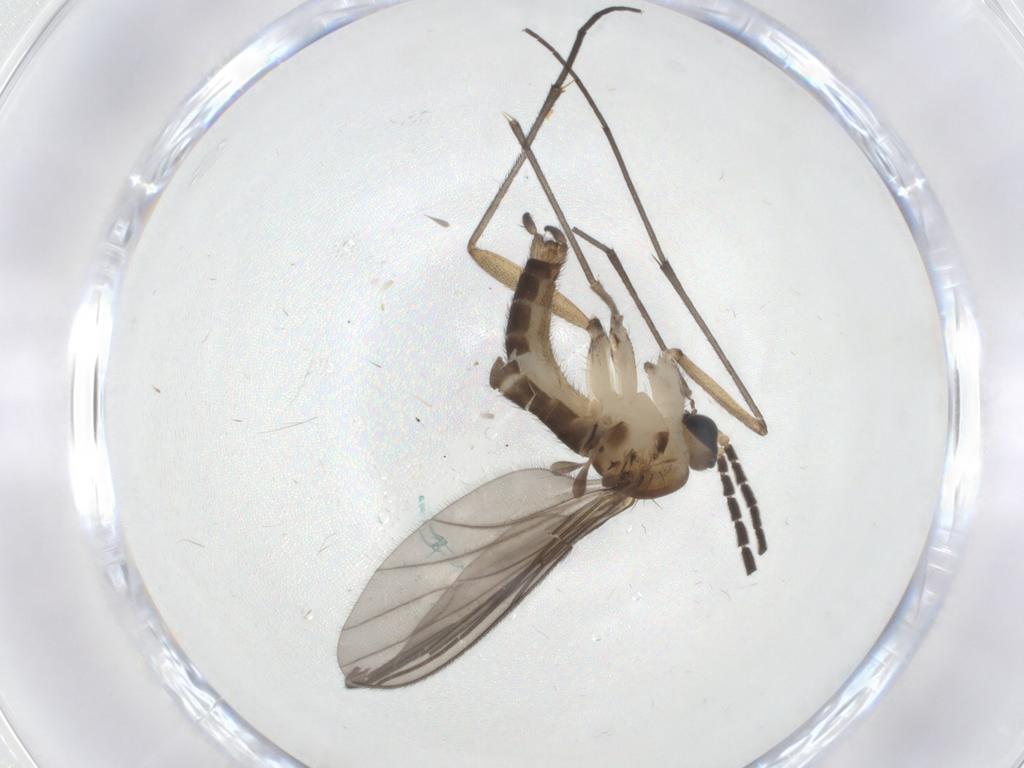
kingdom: Animalia
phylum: Arthropoda
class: Insecta
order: Diptera
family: Sciaridae
